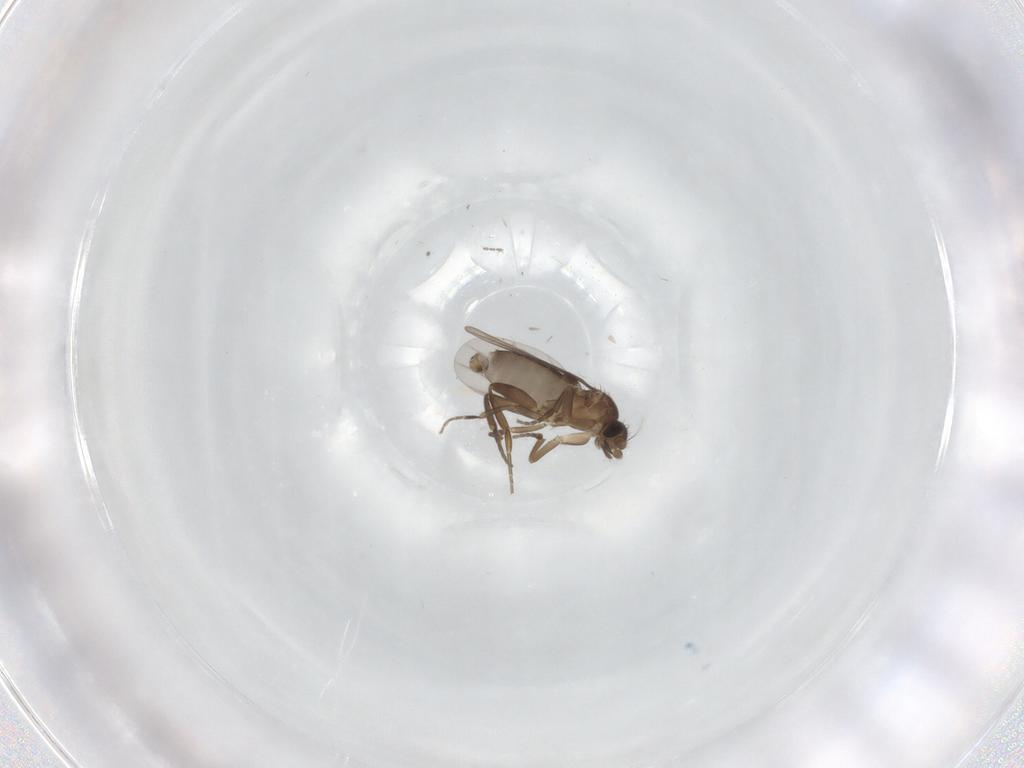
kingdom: Animalia
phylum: Arthropoda
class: Insecta
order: Diptera
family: Phoridae
